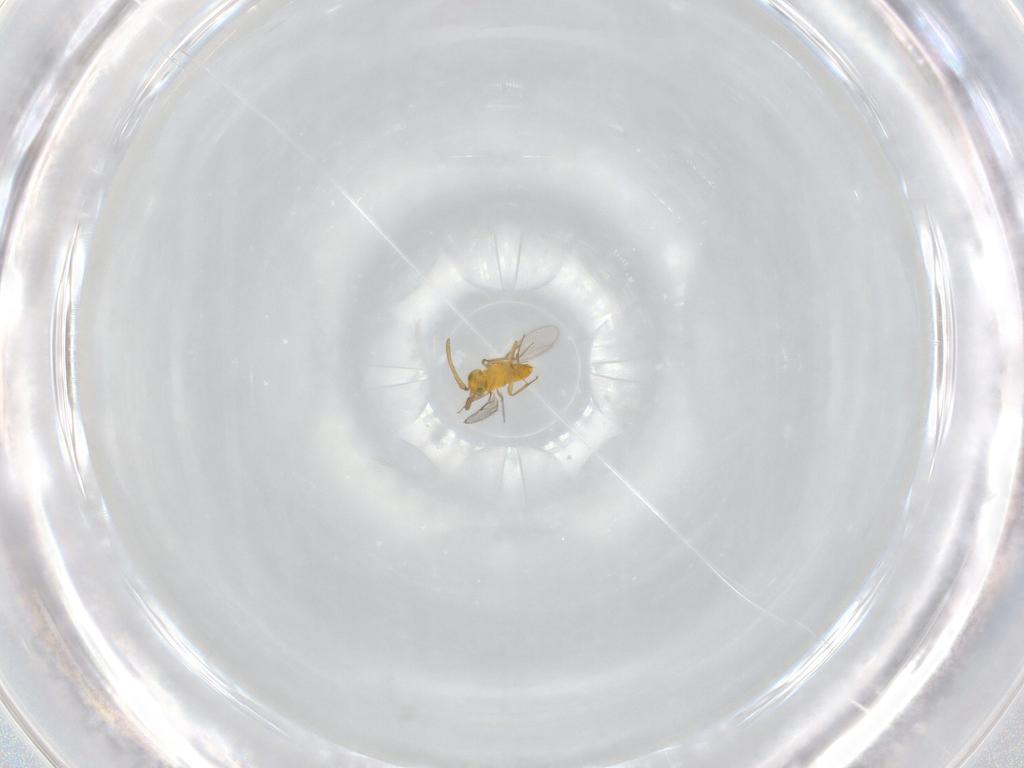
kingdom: Animalia
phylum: Arthropoda
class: Insecta
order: Hymenoptera
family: Aphelinidae
